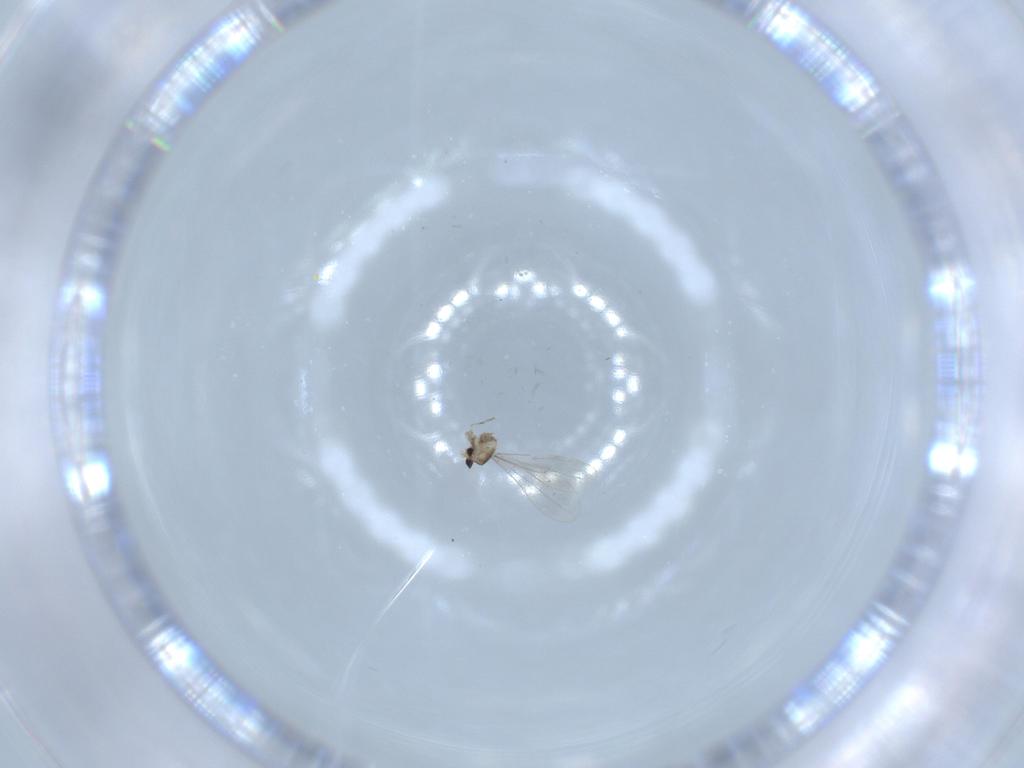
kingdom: Animalia
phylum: Arthropoda
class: Insecta
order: Diptera
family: Cecidomyiidae
